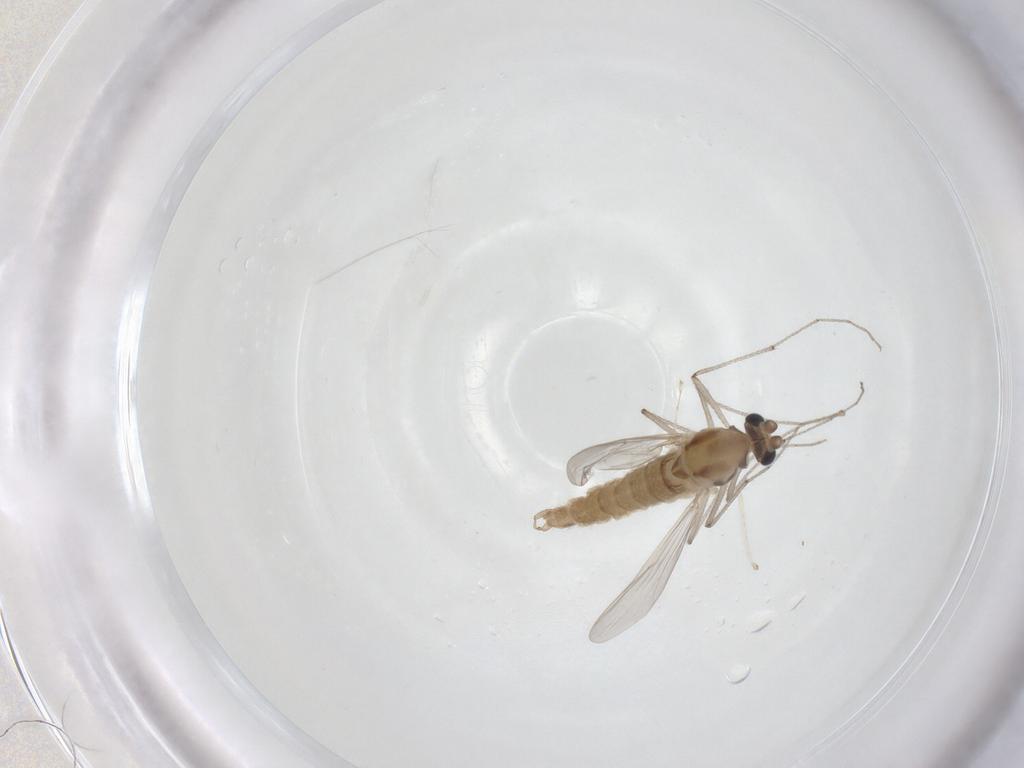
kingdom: Animalia
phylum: Arthropoda
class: Insecta
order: Diptera
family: Chironomidae
